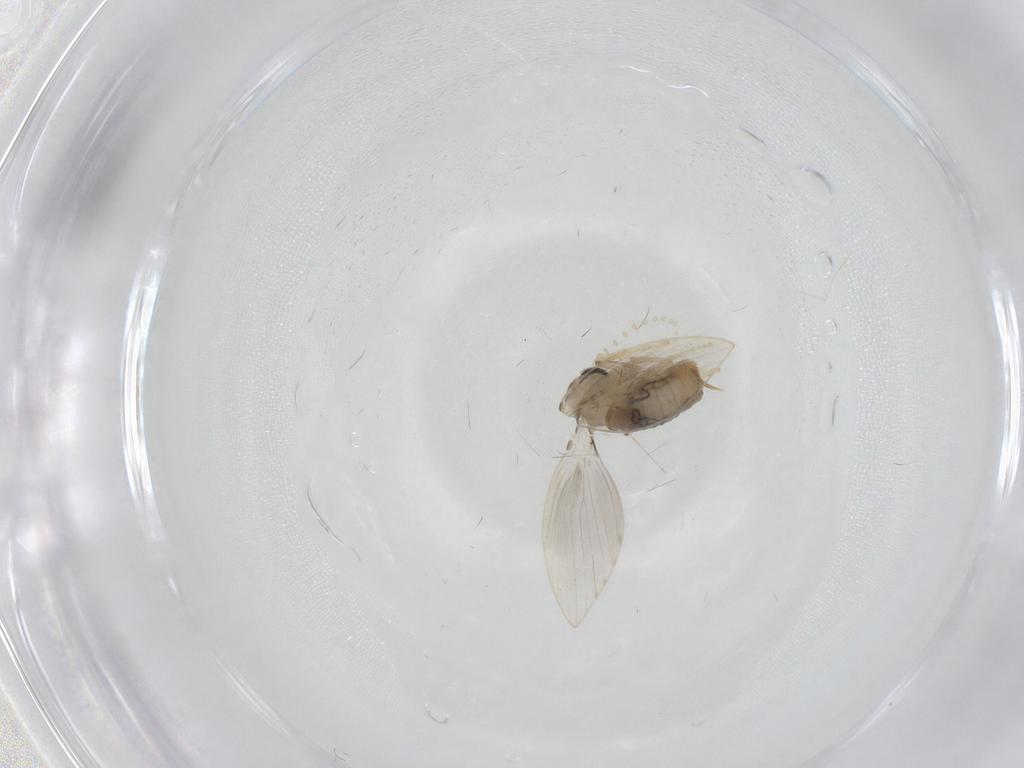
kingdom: Animalia
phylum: Arthropoda
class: Insecta
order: Diptera
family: Psychodidae
